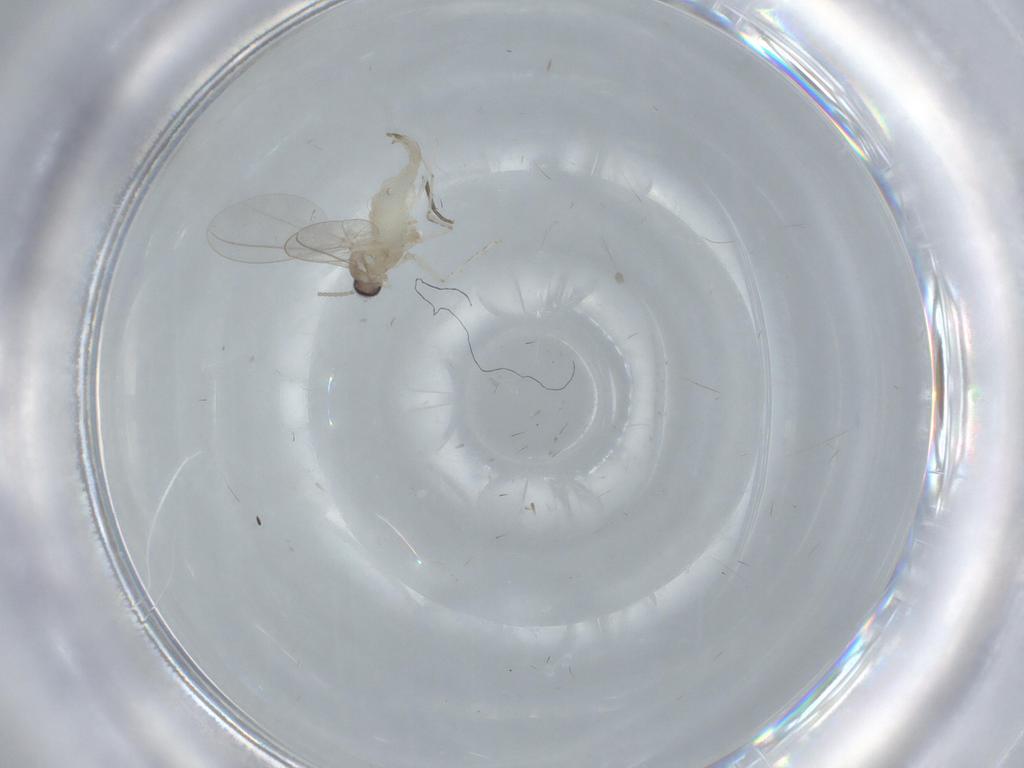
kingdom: Animalia
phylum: Arthropoda
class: Insecta
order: Diptera
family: Cecidomyiidae
